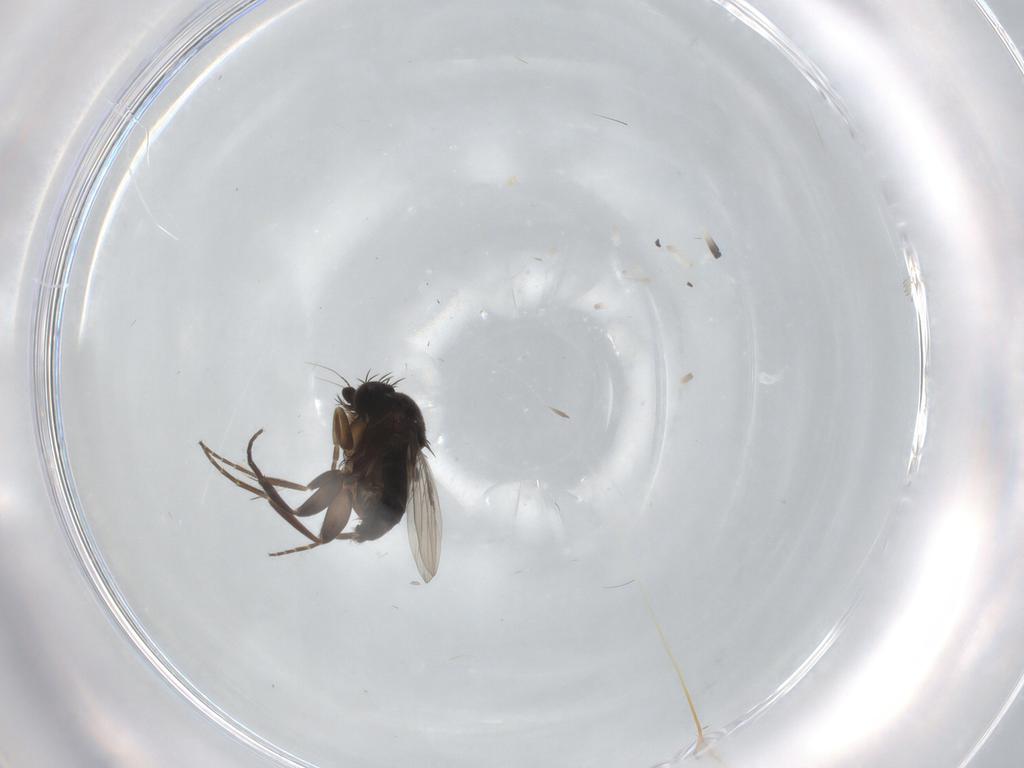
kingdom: Animalia
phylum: Arthropoda
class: Insecta
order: Diptera
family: Phoridae
